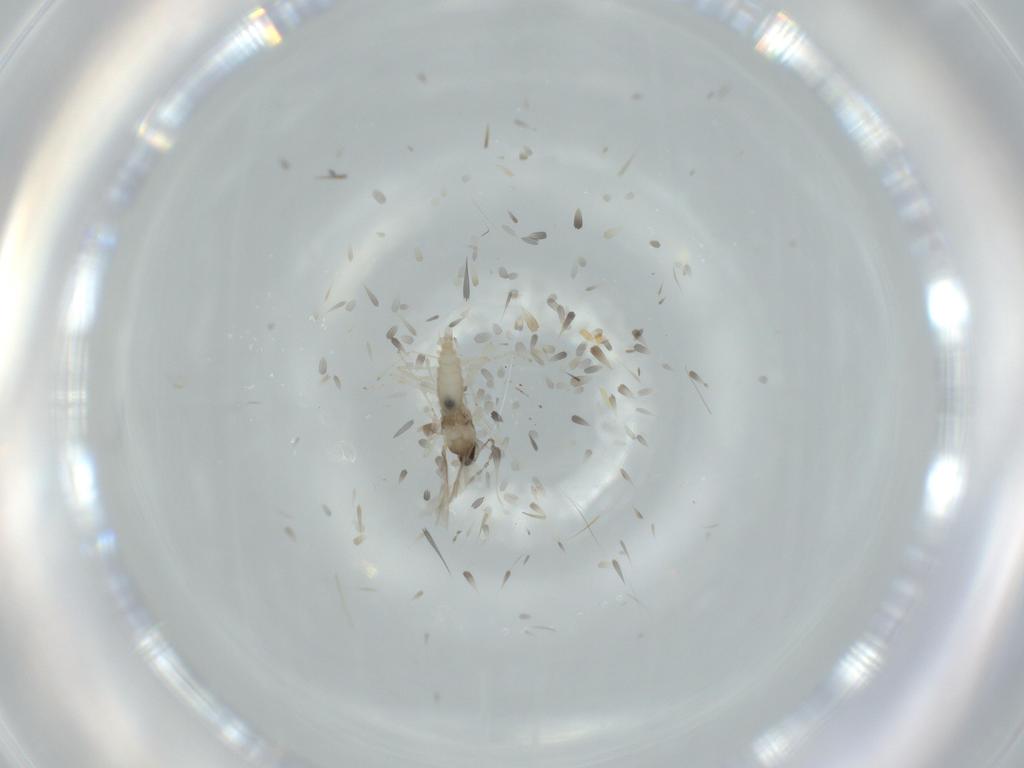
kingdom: Animalia
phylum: Arthropoda
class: Insecta
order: Diptera
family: Cecidomyiidae
